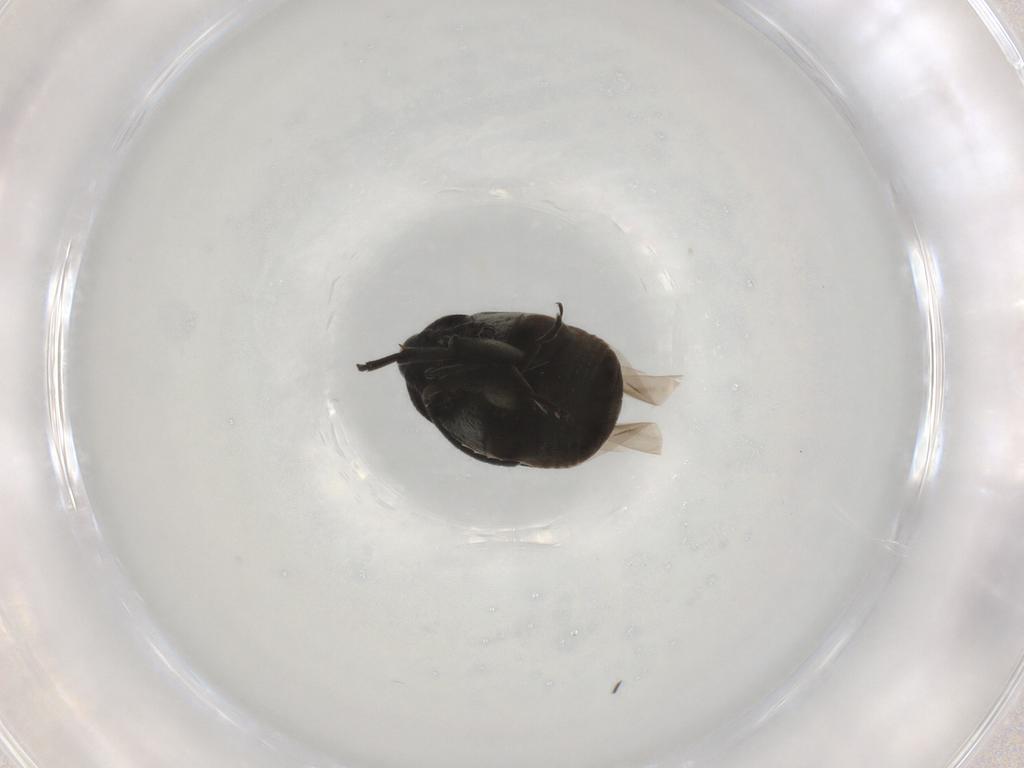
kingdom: Animalia
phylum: Arthropoda
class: Insecta
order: Coleoptera
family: Chrysomelidae
